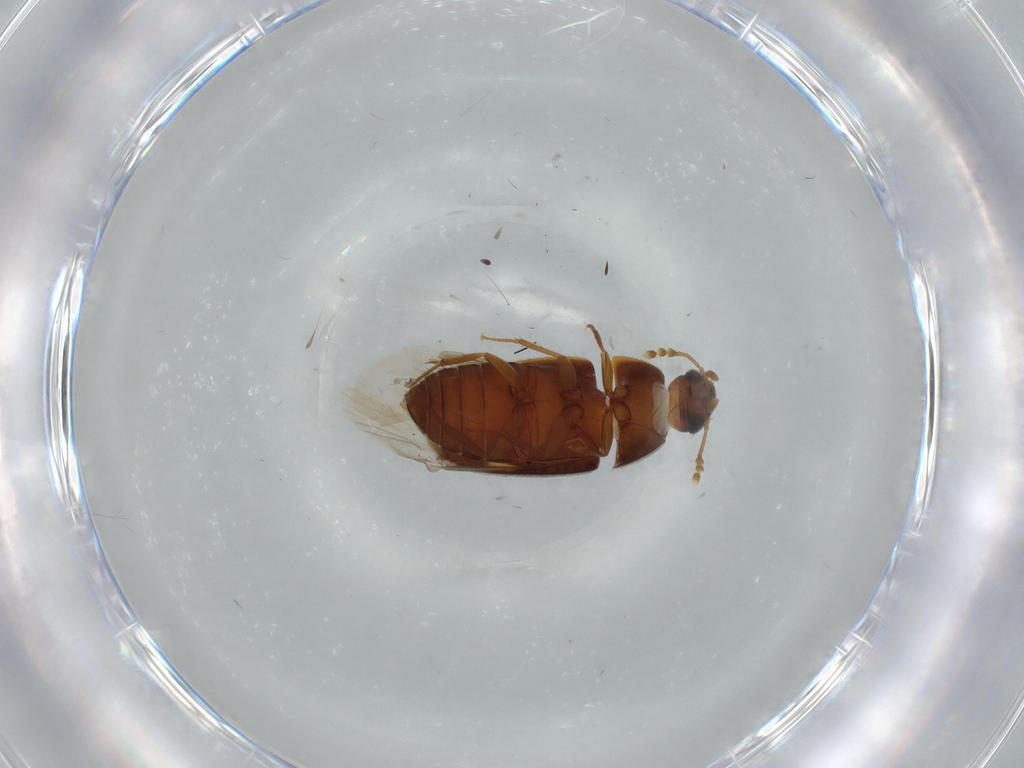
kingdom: Animalia
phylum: Arthropoda
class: Insecta
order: Coleoptera
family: Mycetophagidae
